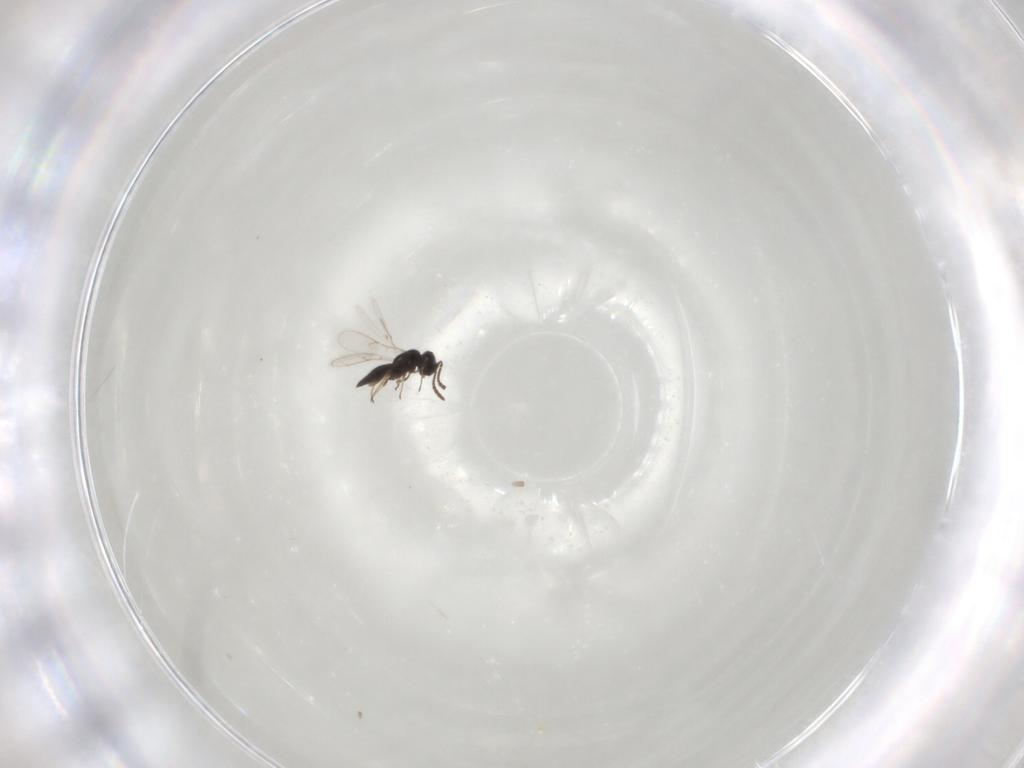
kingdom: Animalia
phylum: Arthropoda
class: Insecta
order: Hymenoptera
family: Scelionidae
